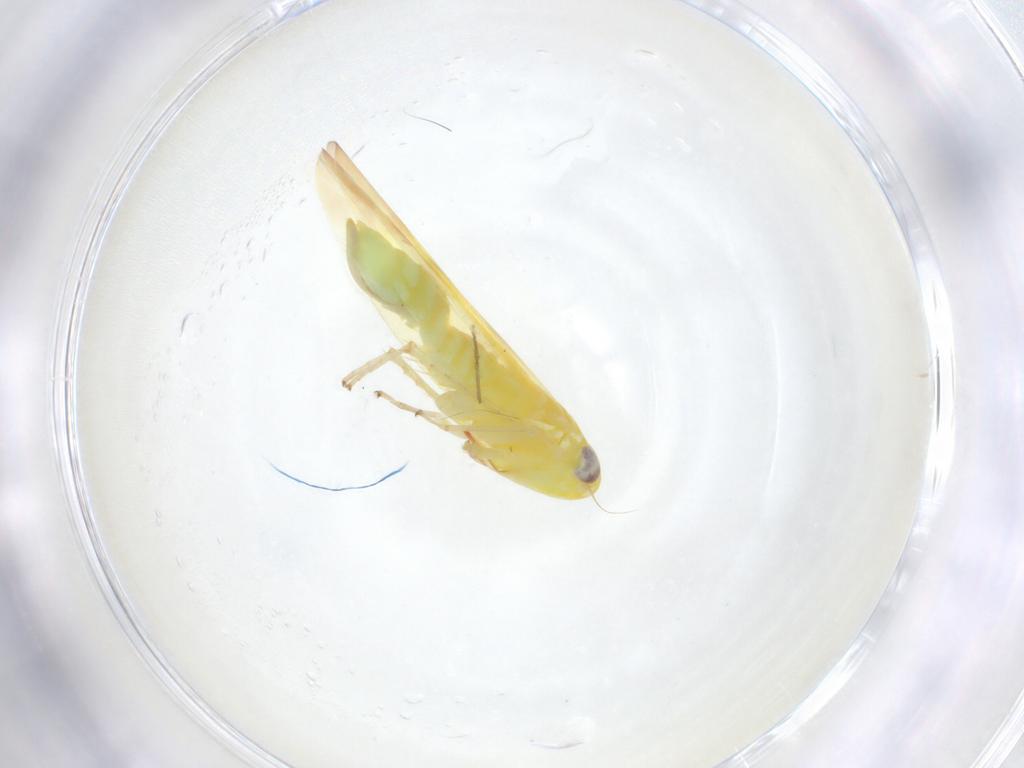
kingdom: Animalia
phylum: Arthropoda
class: Insecta
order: Hemiptera
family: Cicadellidae
